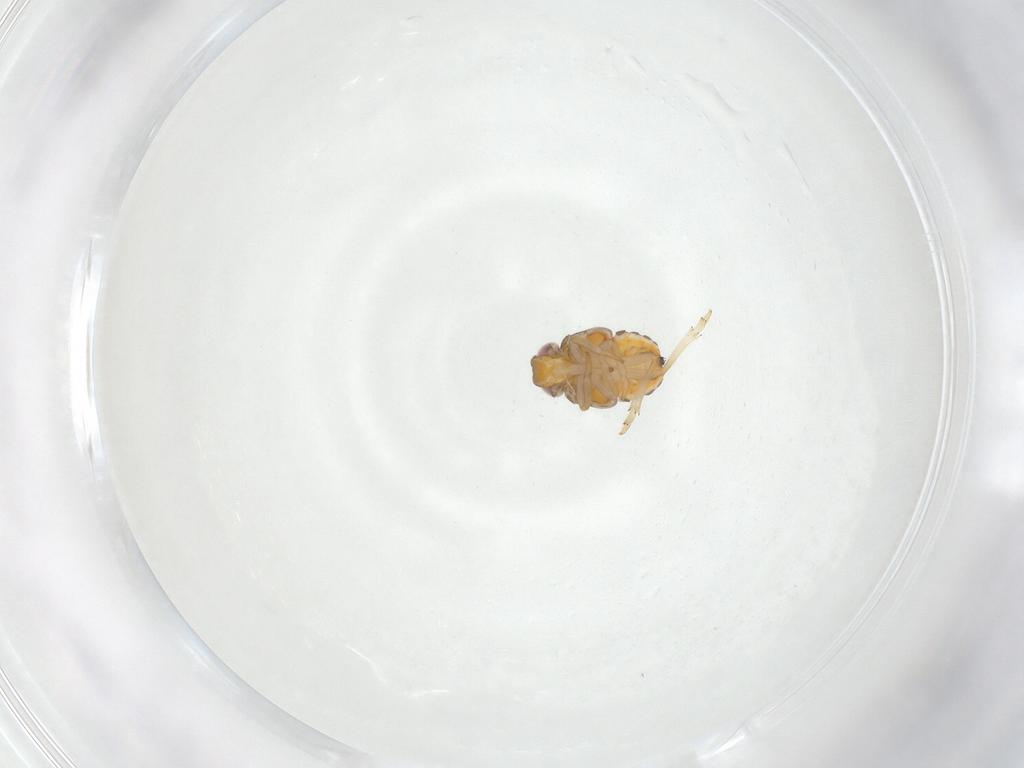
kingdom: Animalia
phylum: Arthropoda
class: Insecta
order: Hemiptera
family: Issidae
